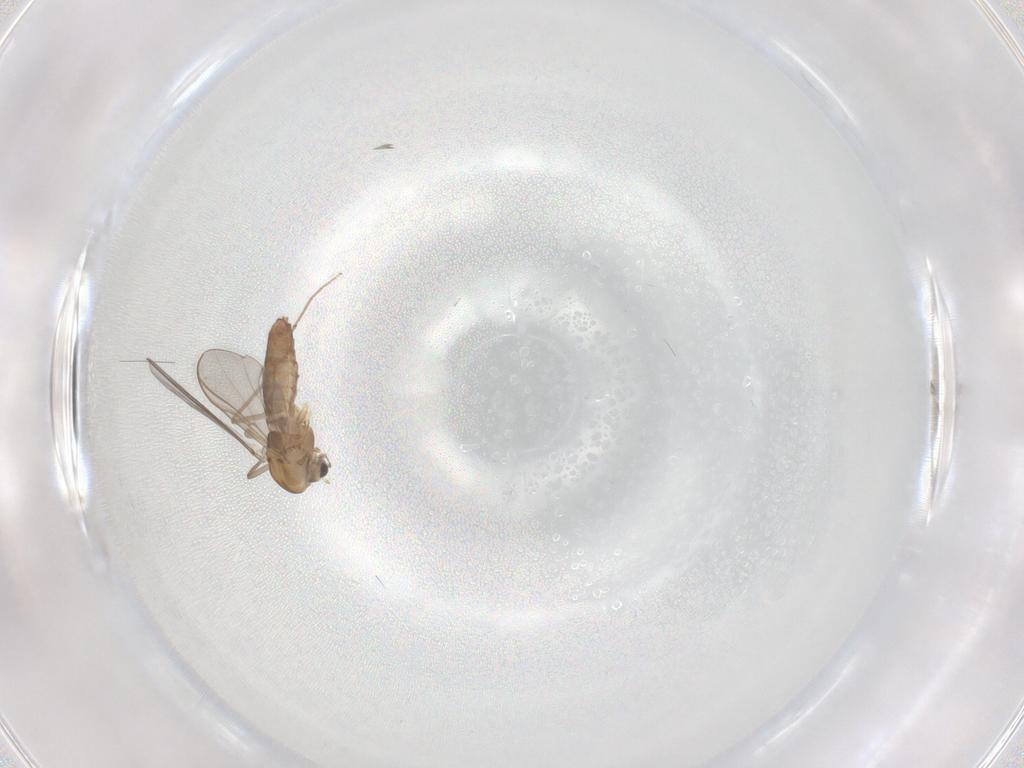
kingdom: Animalia
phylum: Arthropoda
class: Insecta
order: Diptera
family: Chironomidae
